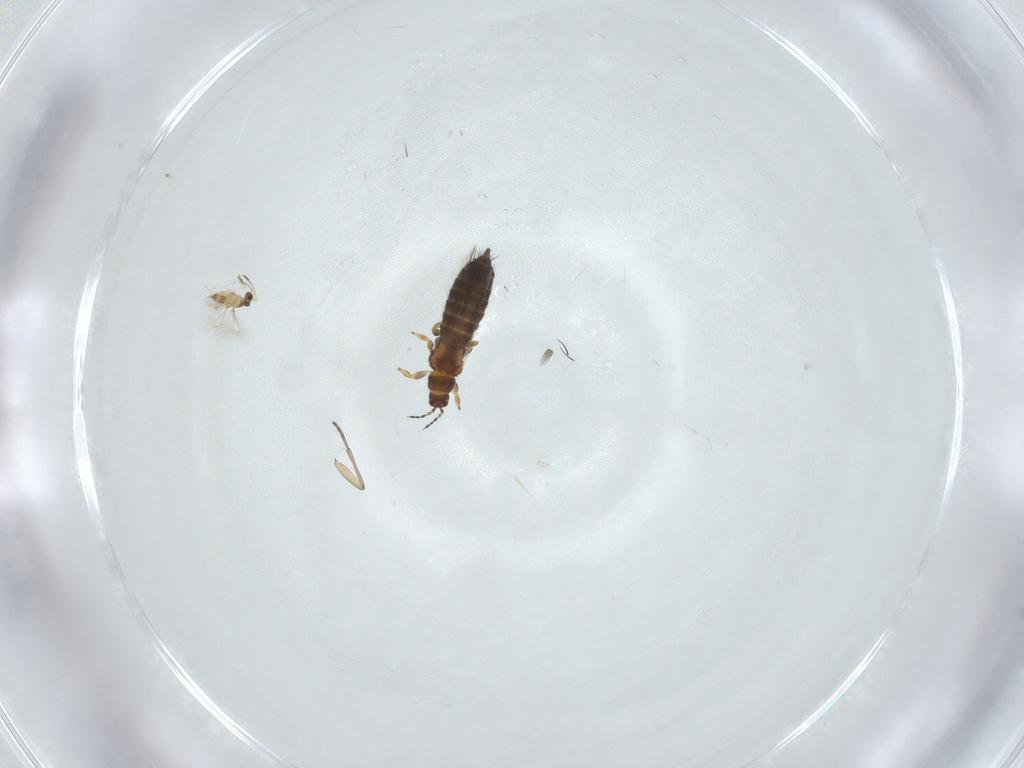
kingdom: Animalia
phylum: Arthropoda
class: Insecta
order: Thysanoptera
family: Thripidae
